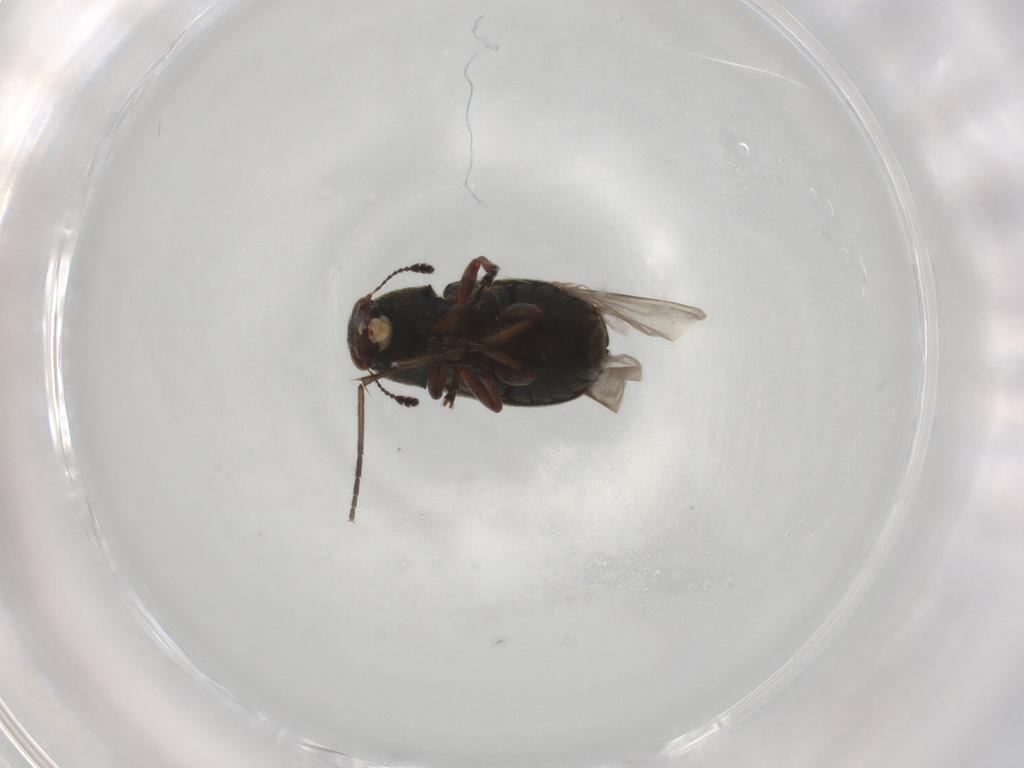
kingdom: Animalia
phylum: Arthropoda
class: Insecta
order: Coleoptera
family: Anthribidae
